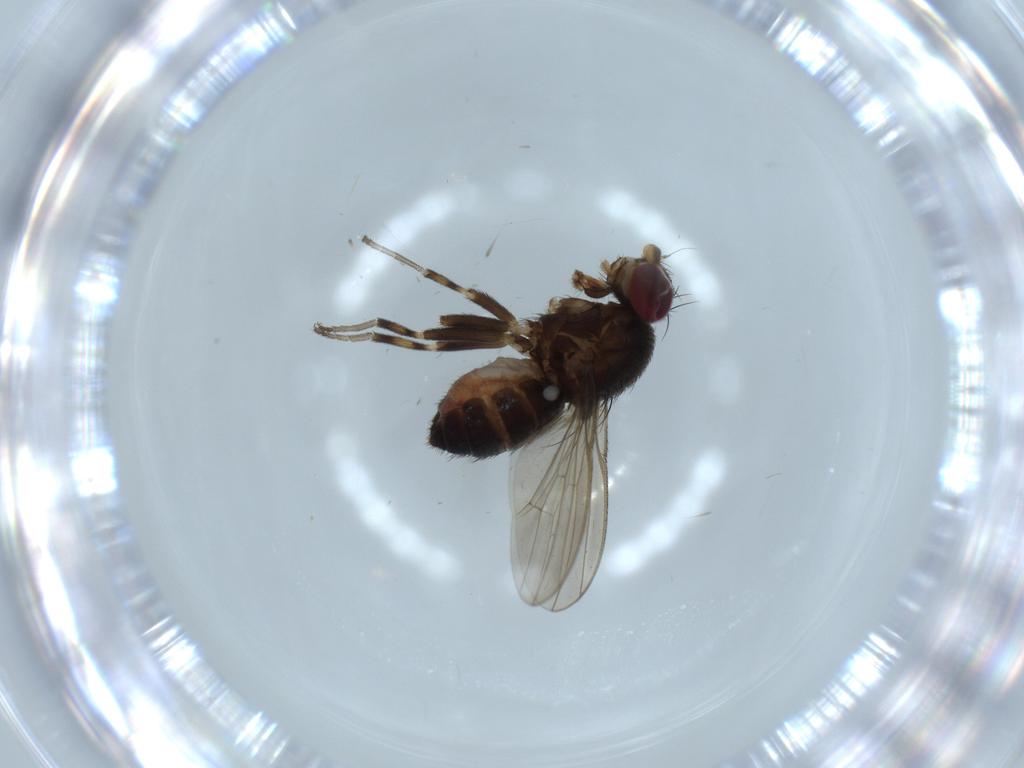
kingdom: Animalia
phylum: Arthropoda
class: Insecta
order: Diptera
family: Heleomyzidae
